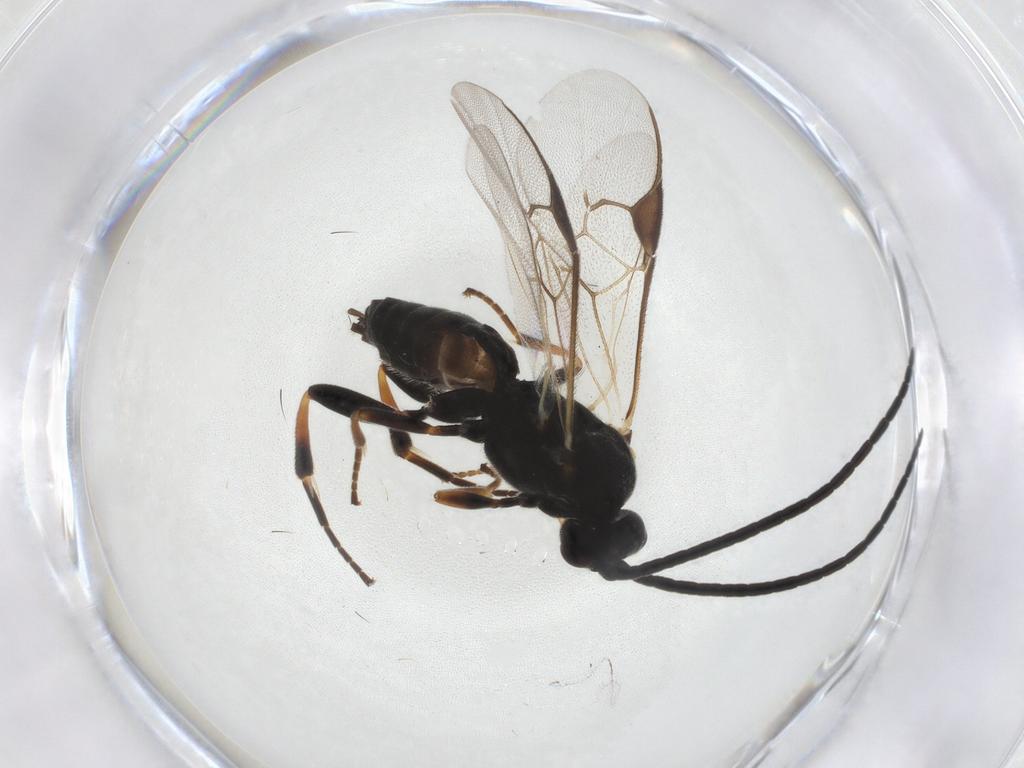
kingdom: Animalia
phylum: Arthropoda
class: Insecta
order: Hymenoptera
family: Braconidae
